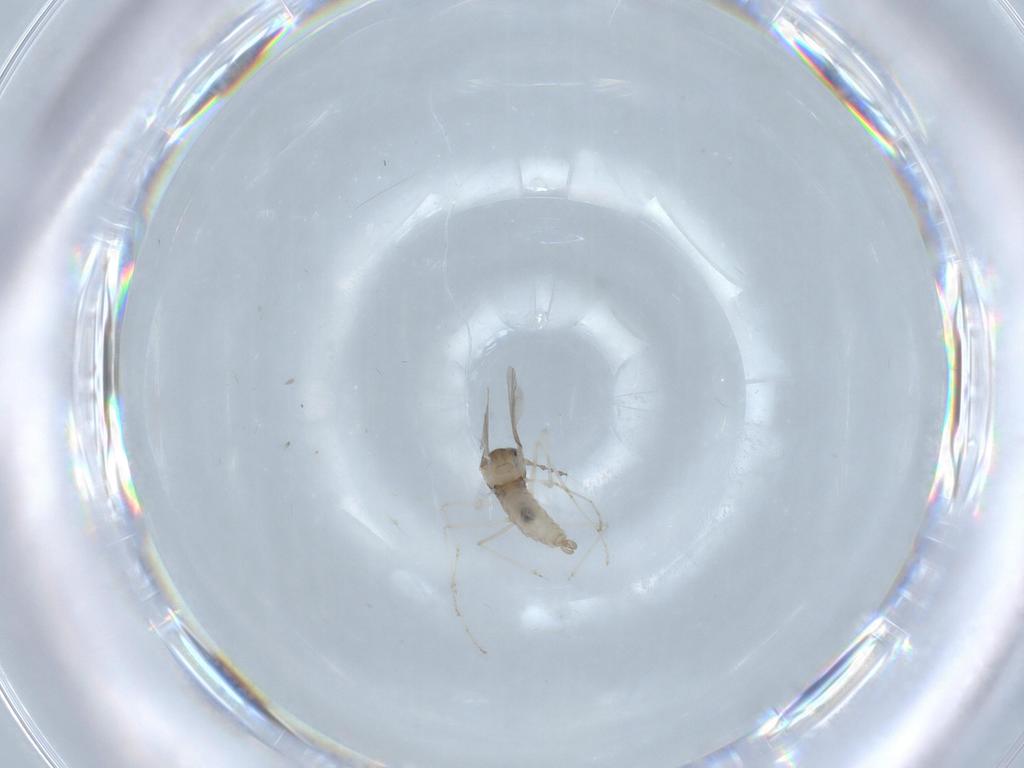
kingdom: Animalia
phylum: Arthropoda
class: Insecta
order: Diptera
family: Cecidomyiidae
